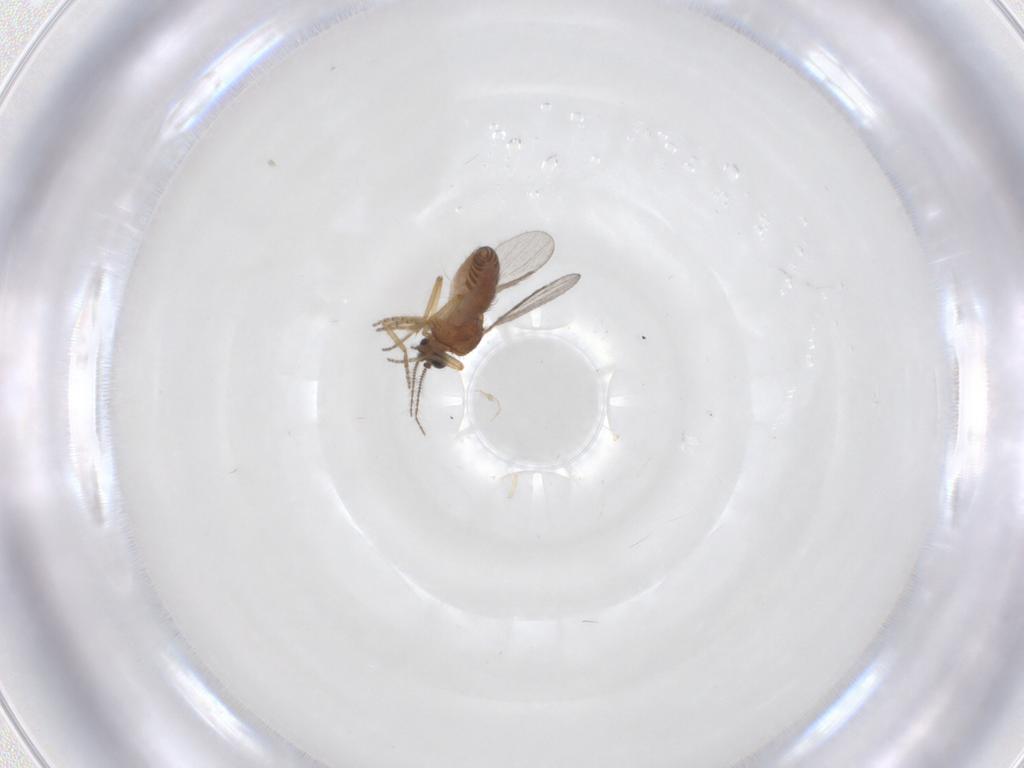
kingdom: Animalia
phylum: Arthropoda
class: Insecta
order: Diptera
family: Ceratopogonidae
